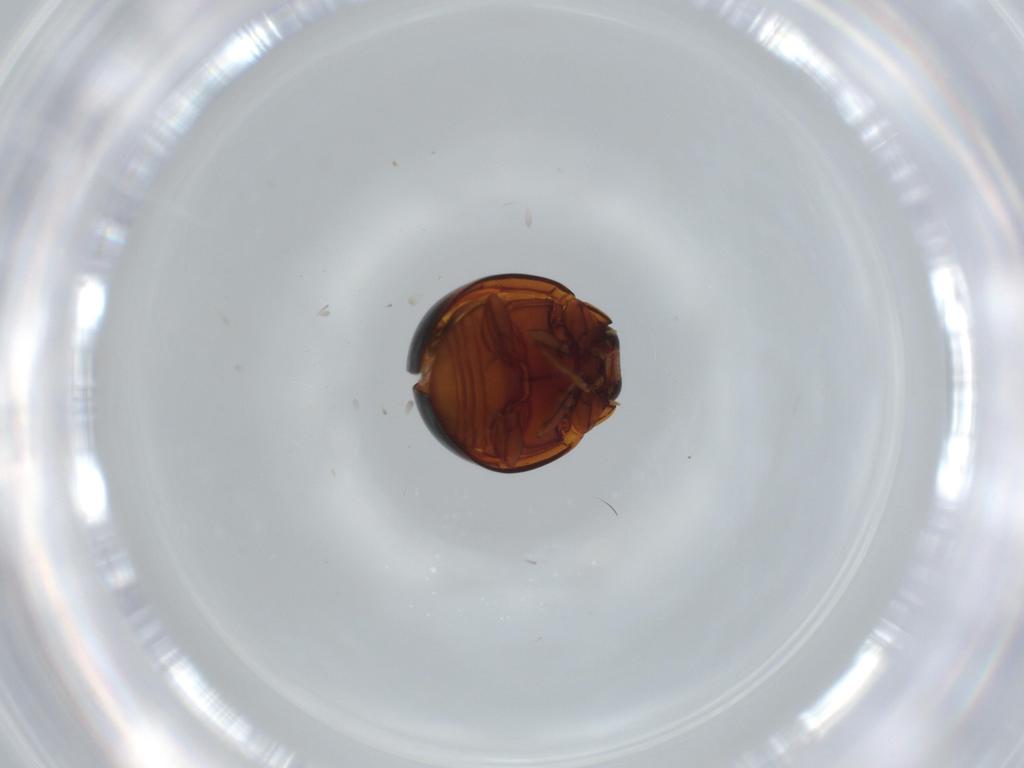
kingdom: Animalia
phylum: Arthropoda
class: Insecta
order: Coleoptera
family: Coccinellidae
